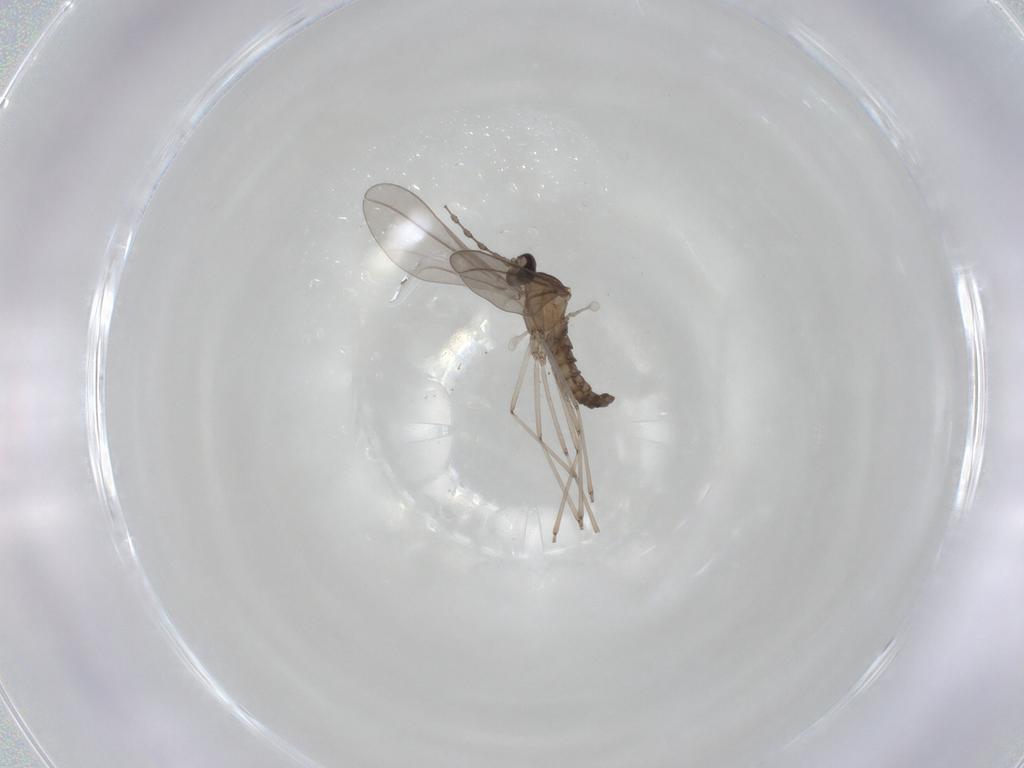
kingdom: Animalia
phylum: Arthropoda
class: Insecta
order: Diptera
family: Cecidomyiidae
